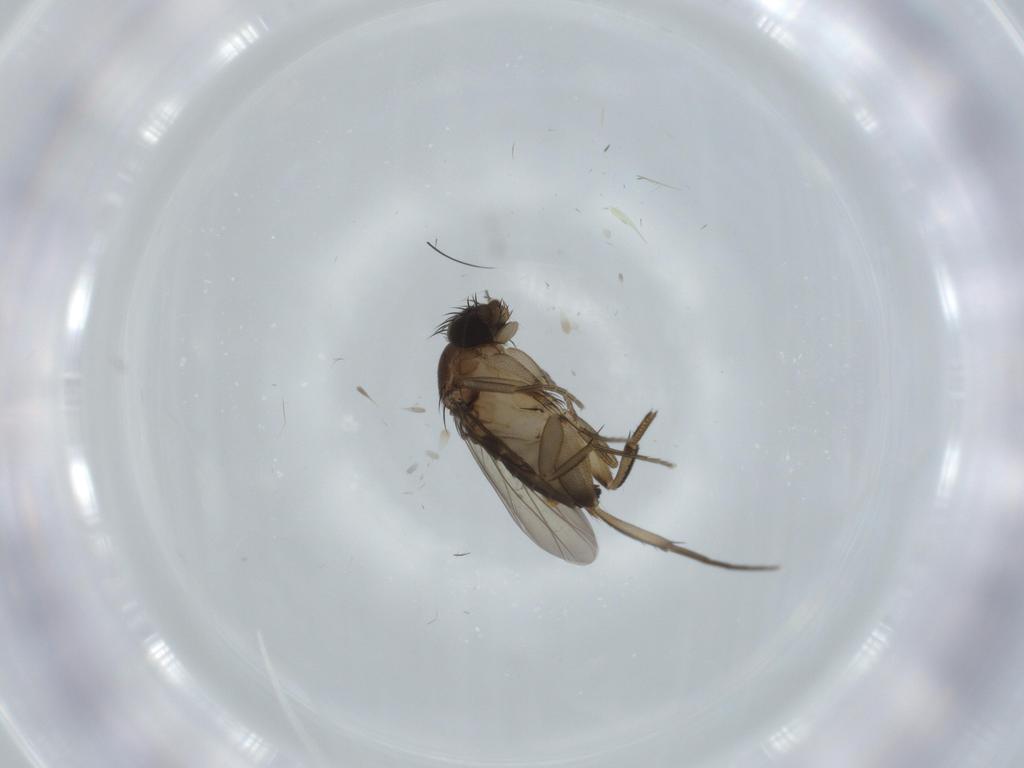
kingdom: Animalia
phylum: Arthropoda
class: Insecta
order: Diptera
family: Phoridae
